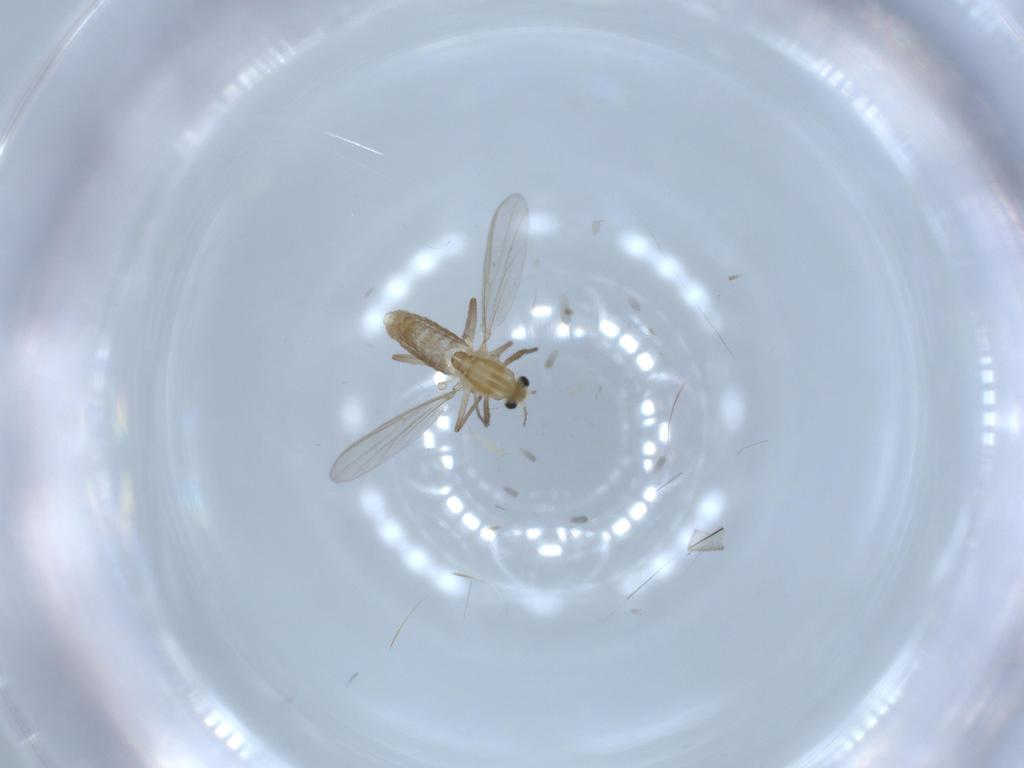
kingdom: Animalia
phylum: Arthropoda
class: Insecta
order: Diptera
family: Chironomidae
